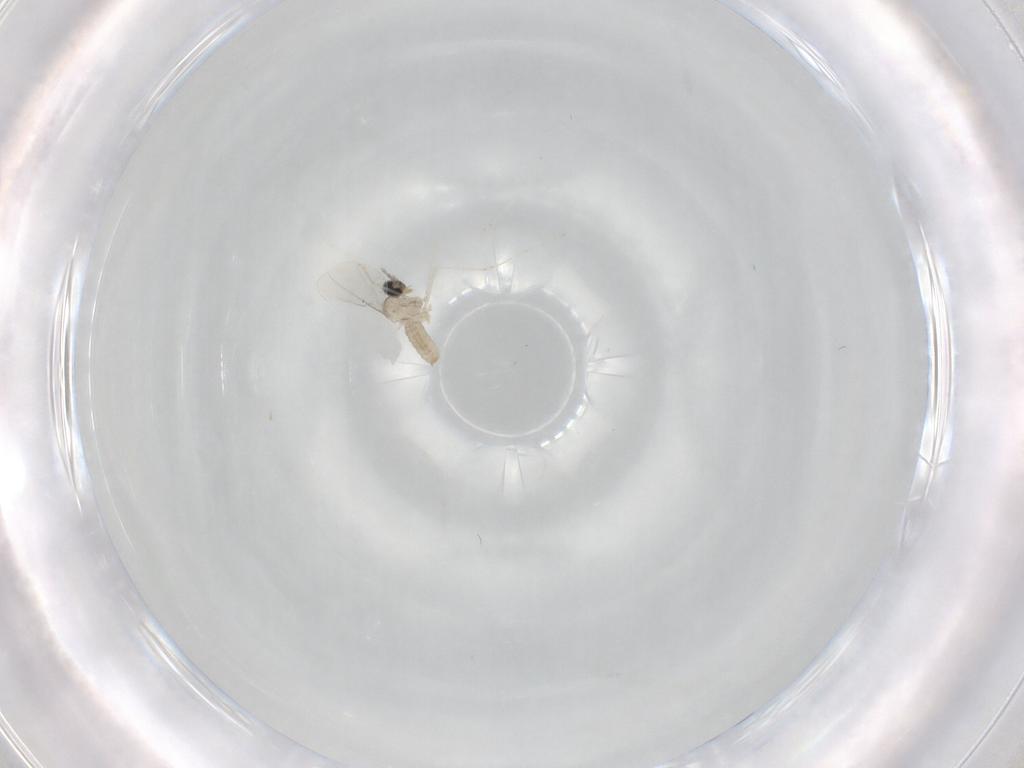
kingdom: Animalia
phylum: Arthropoda
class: Insecta
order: Diptera
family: Cecidomyiidae
